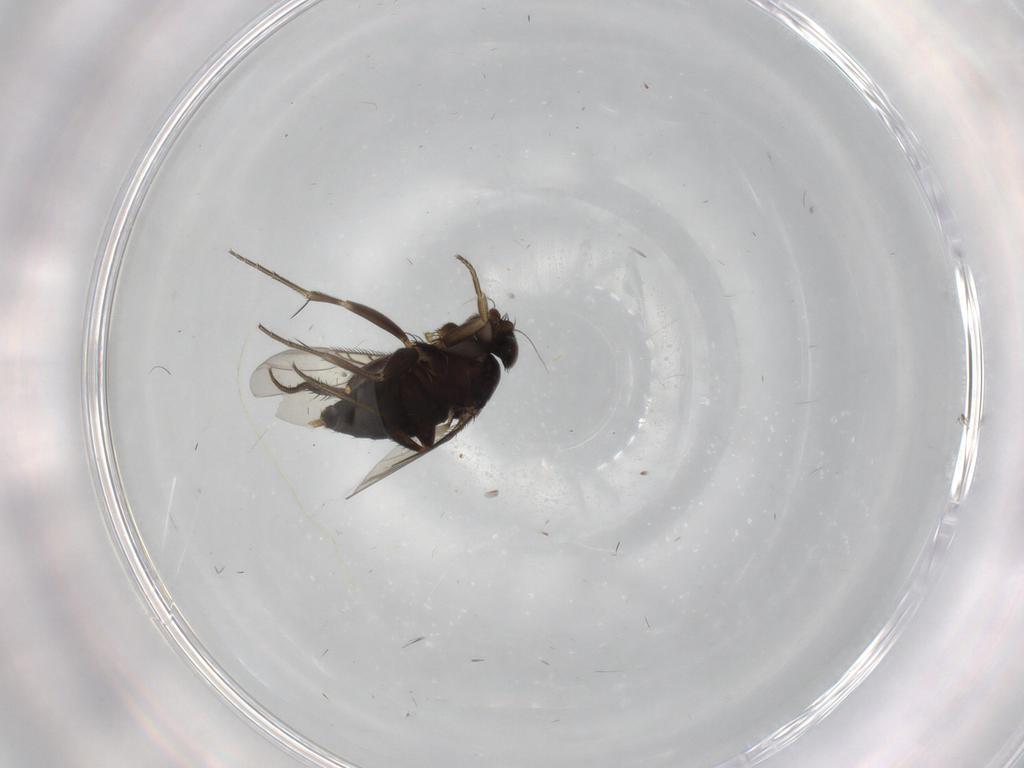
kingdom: Animalia
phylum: Arthropoda
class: Insecta
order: Diptera
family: Phoridae
